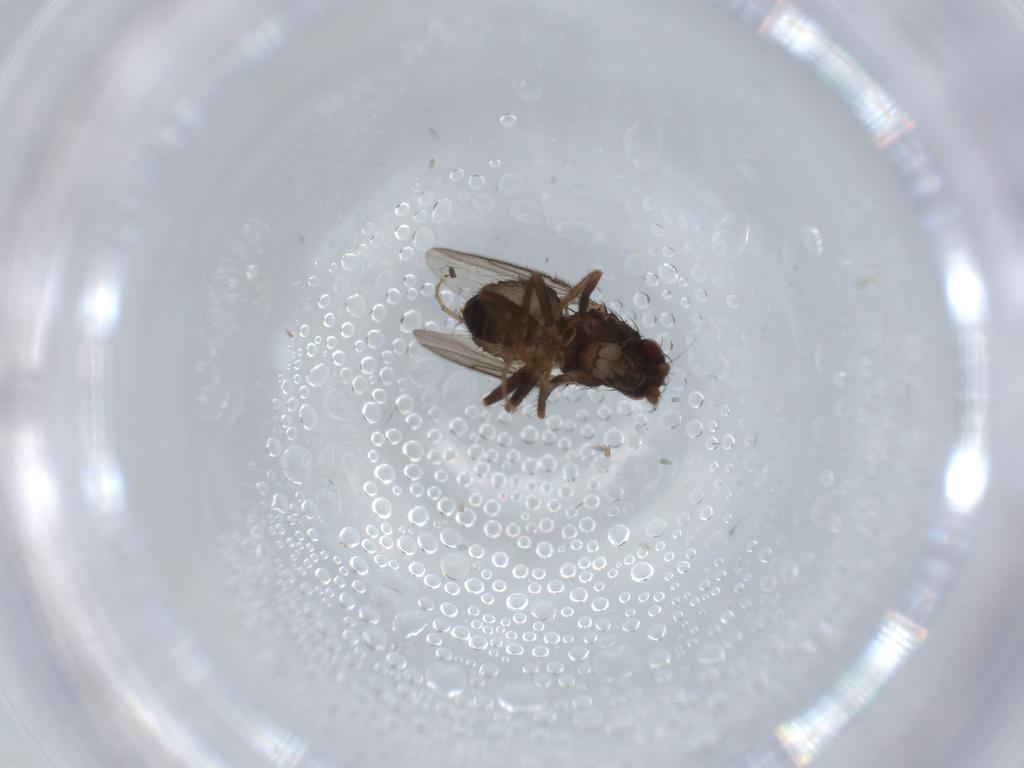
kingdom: Animalia
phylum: Arthropoda
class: Insecta
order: Diptera
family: Sphaeroceridae
